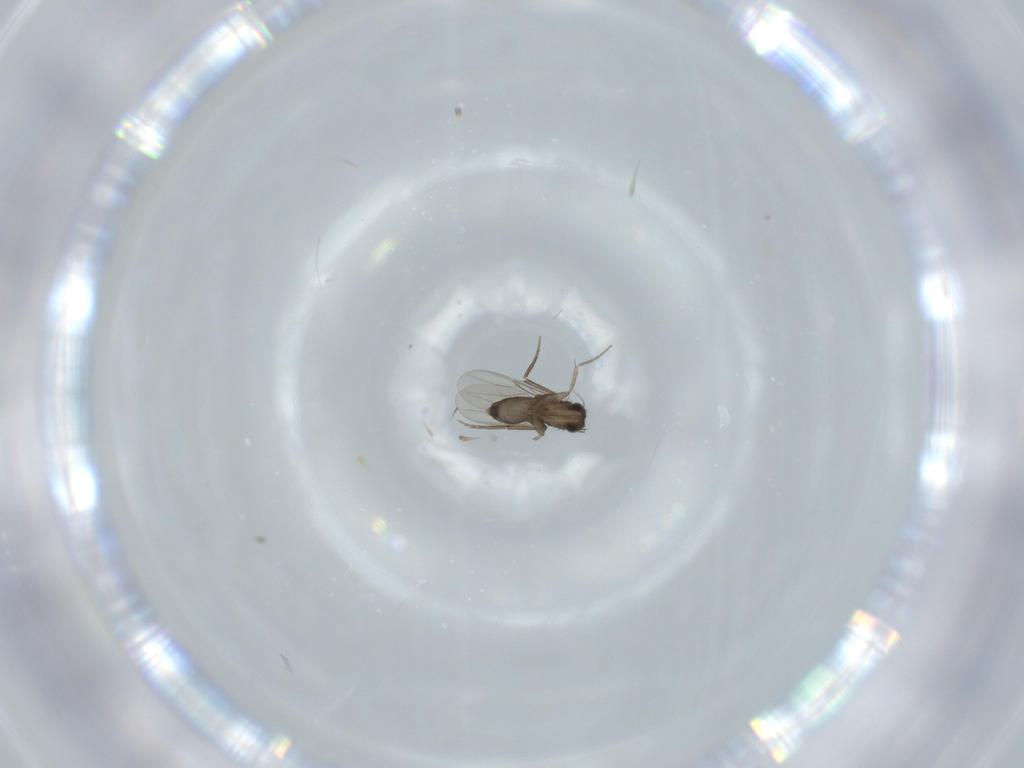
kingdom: Animalia
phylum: Arthropoda
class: Insecta
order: Diptera
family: Phoridae
